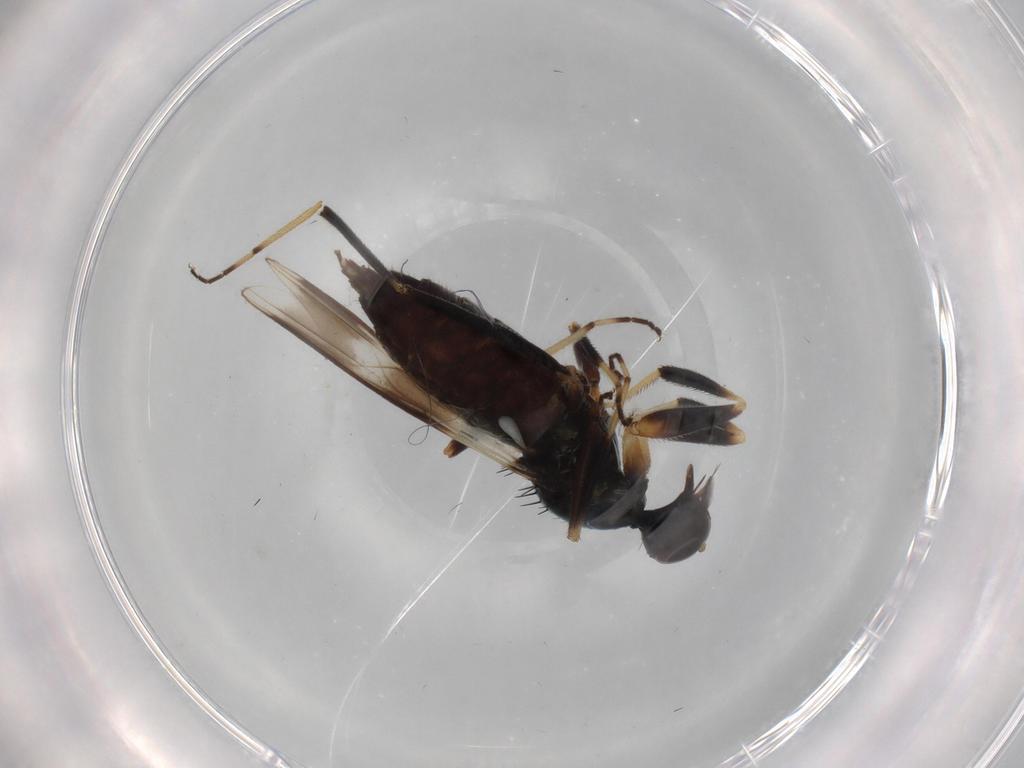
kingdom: Animalia
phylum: Arthropoda
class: Insecta
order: Diptera
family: Hybotidae
